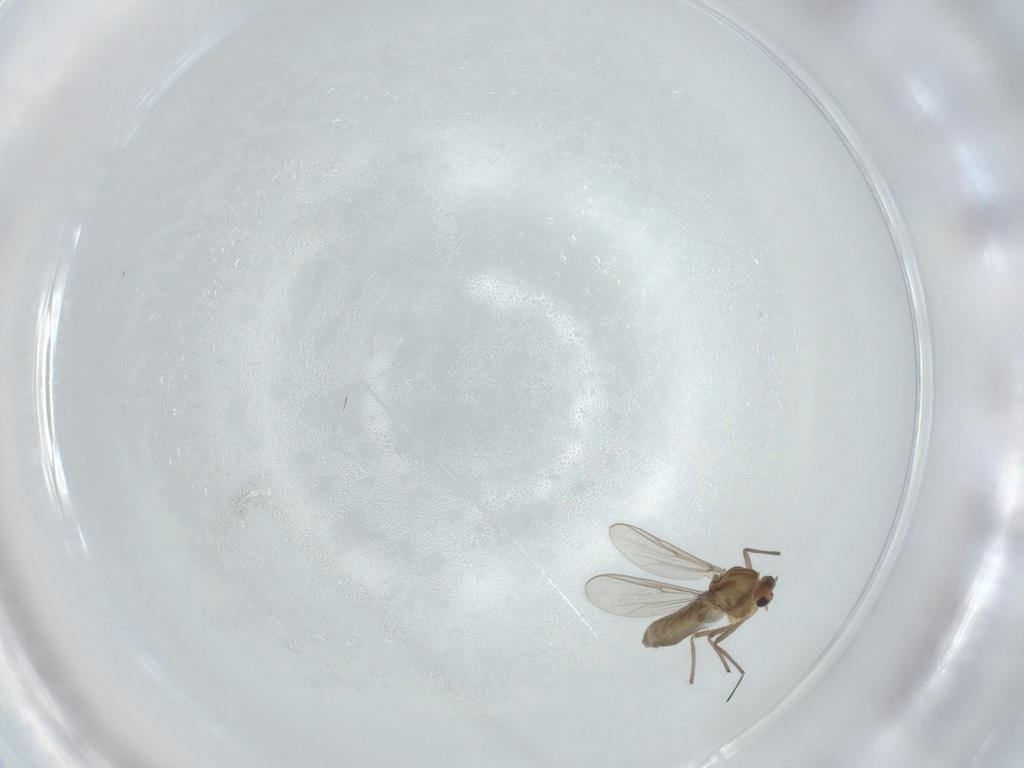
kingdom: Animalia
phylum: Arthropoda
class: Insecta
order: Diptera
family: Chironomidae
